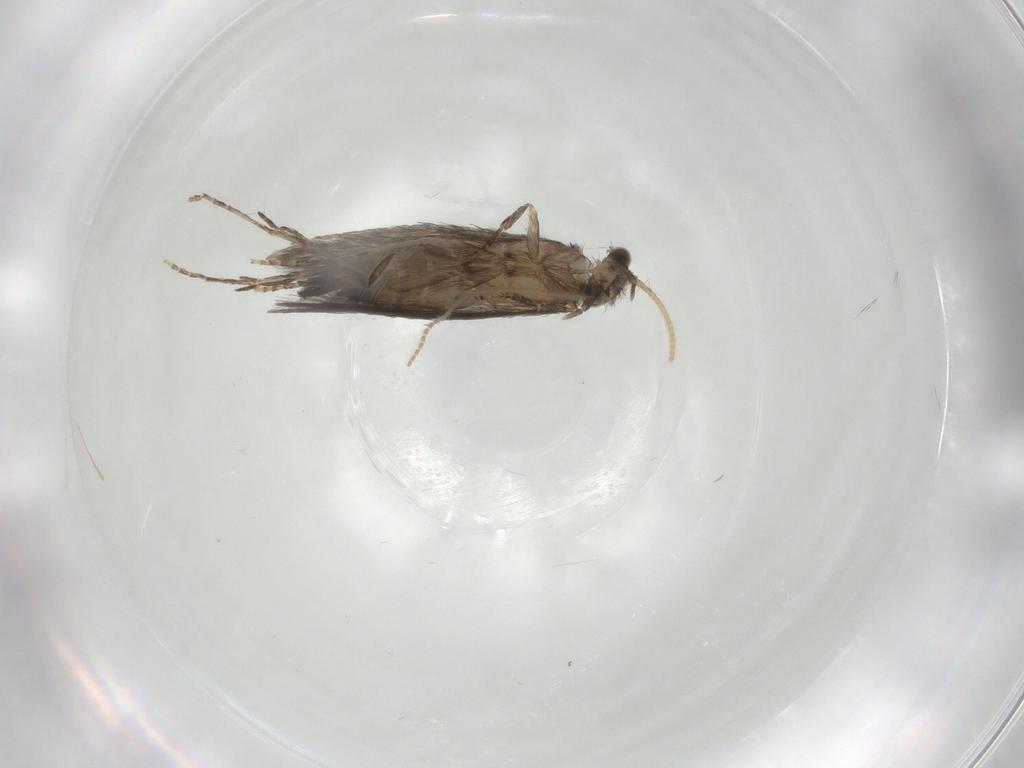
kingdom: Animalia
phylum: Arthropoda
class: Insecta
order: Trichoptera
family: Hydroptilidae
